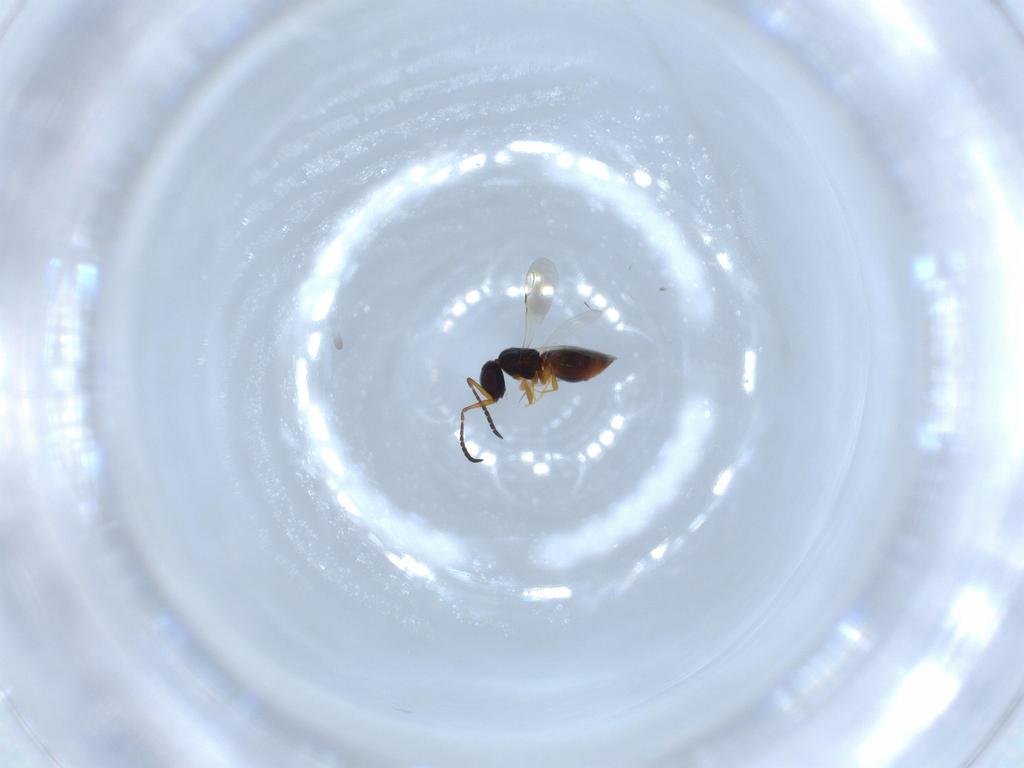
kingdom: Animalia
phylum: Arthropoda
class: Insecta
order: Hymenoptera
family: Ceraphronidae
